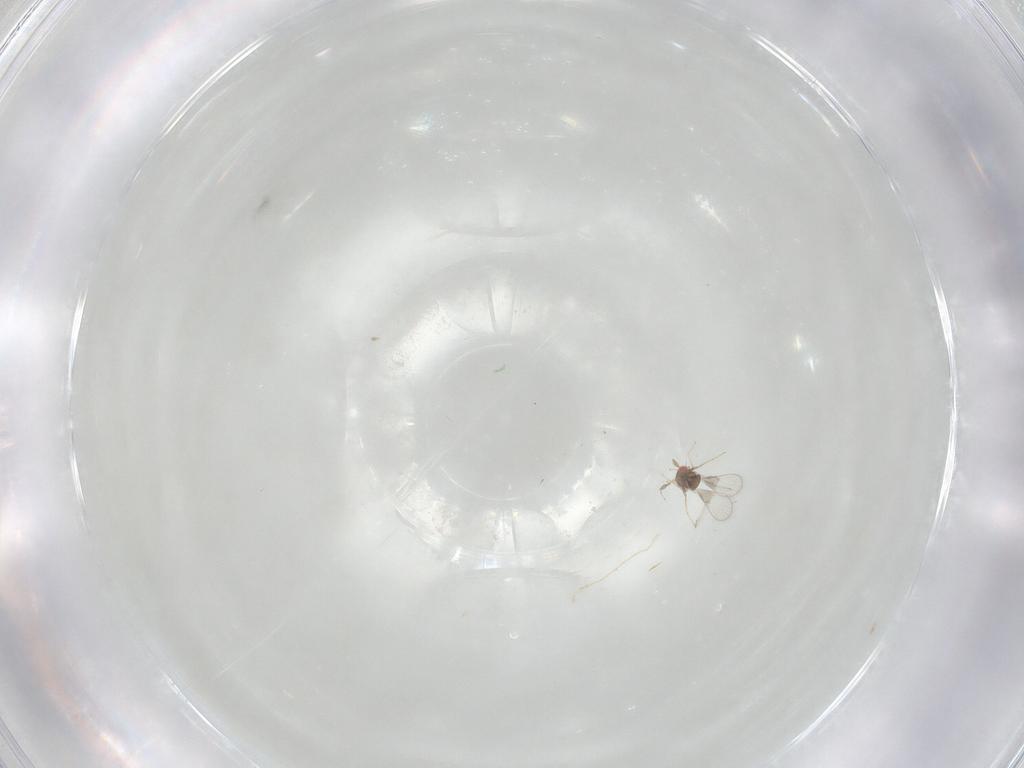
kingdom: Animalia
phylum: Arthropoda
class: Insecta
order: Hymenoptera
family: Trichogrammatidae
